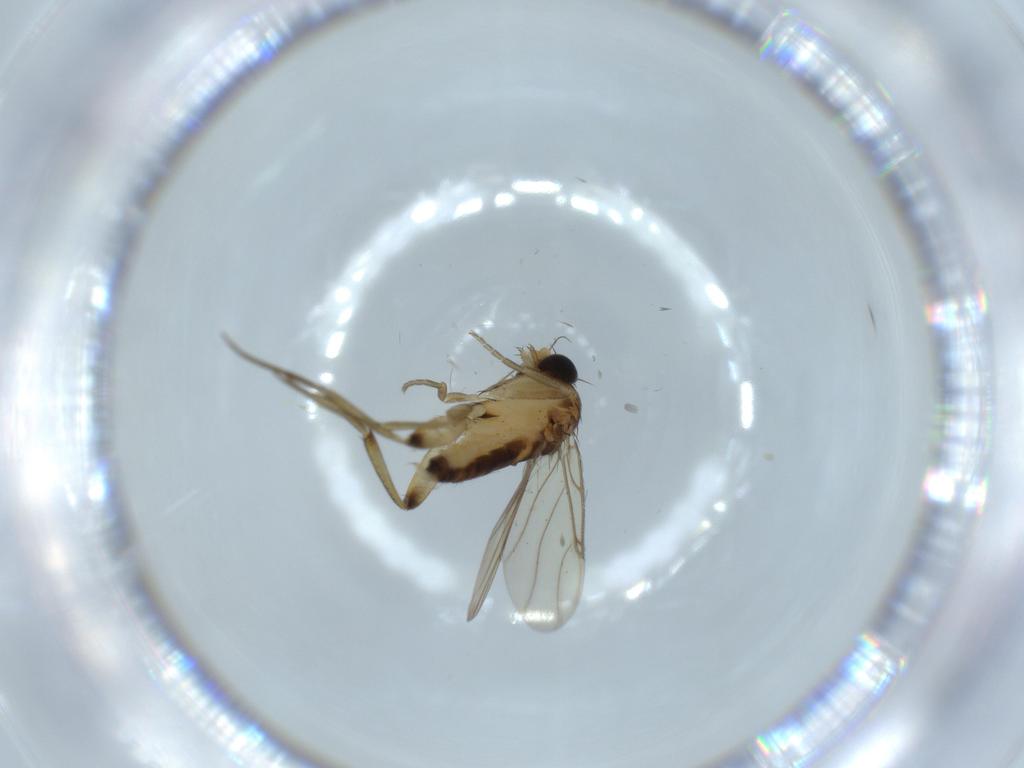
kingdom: Animalia
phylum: Arthropoda
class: Insecta
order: Diptera
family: Phoridae
